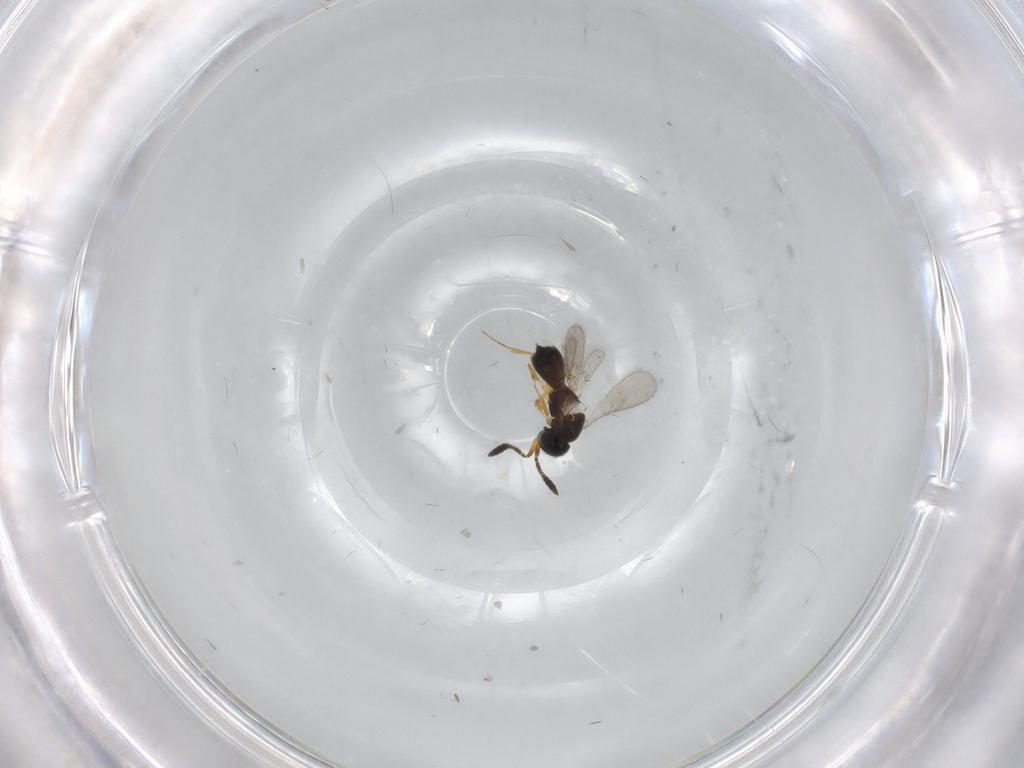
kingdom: Animalia
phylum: Arthropoda
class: Insecta
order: Hymenoptera
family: Scelionidae
